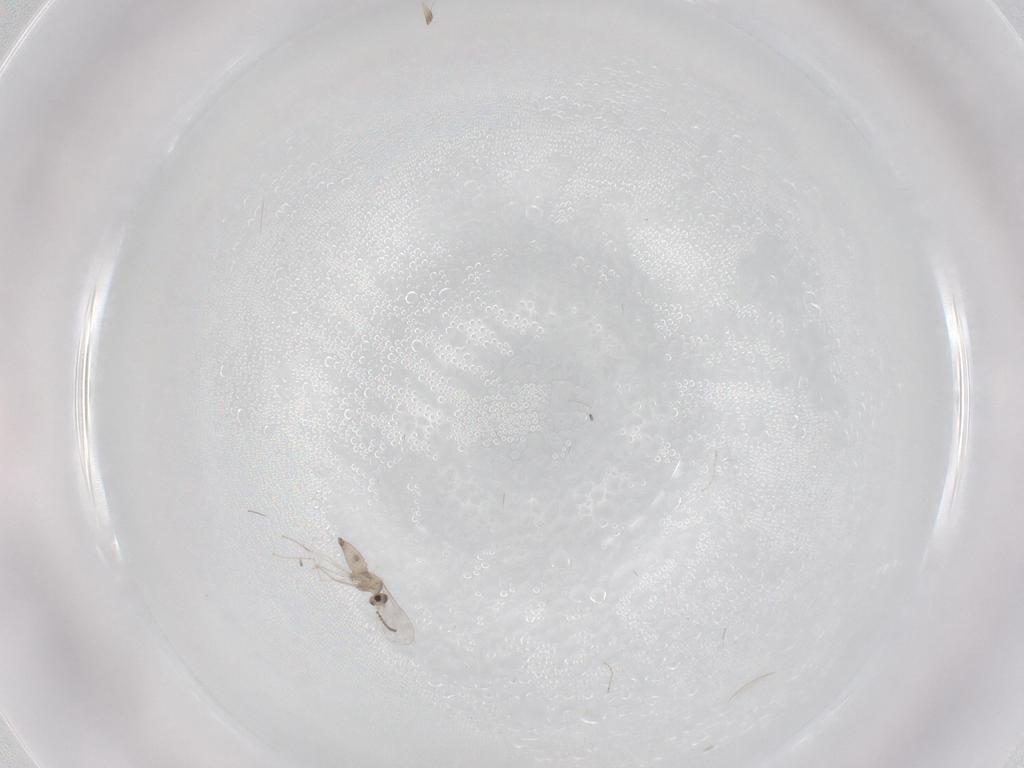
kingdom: Animalia
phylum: Arthropoda
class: Insecta
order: Diptera
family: Cecidomyiidae
